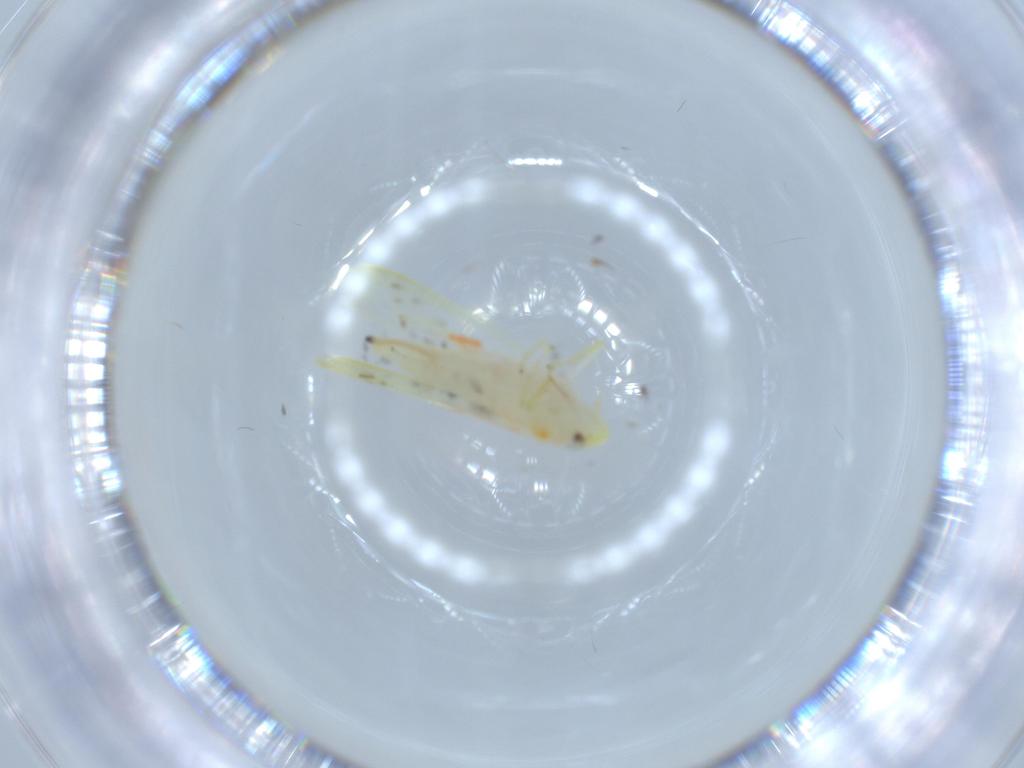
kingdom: Animalia
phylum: Arthropoda
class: Insecta
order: Hemiptera
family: Cicadellidae
